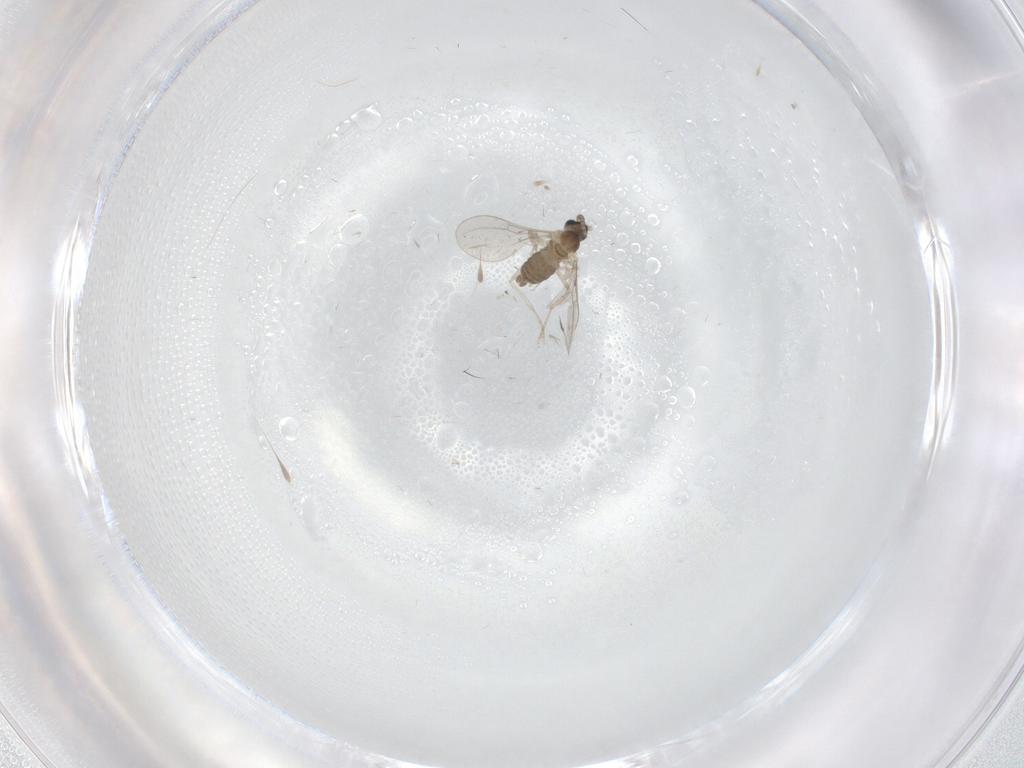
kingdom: Animalia
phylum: Arthropoda
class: Insecta
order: Diptera
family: Cecidomyiidae
